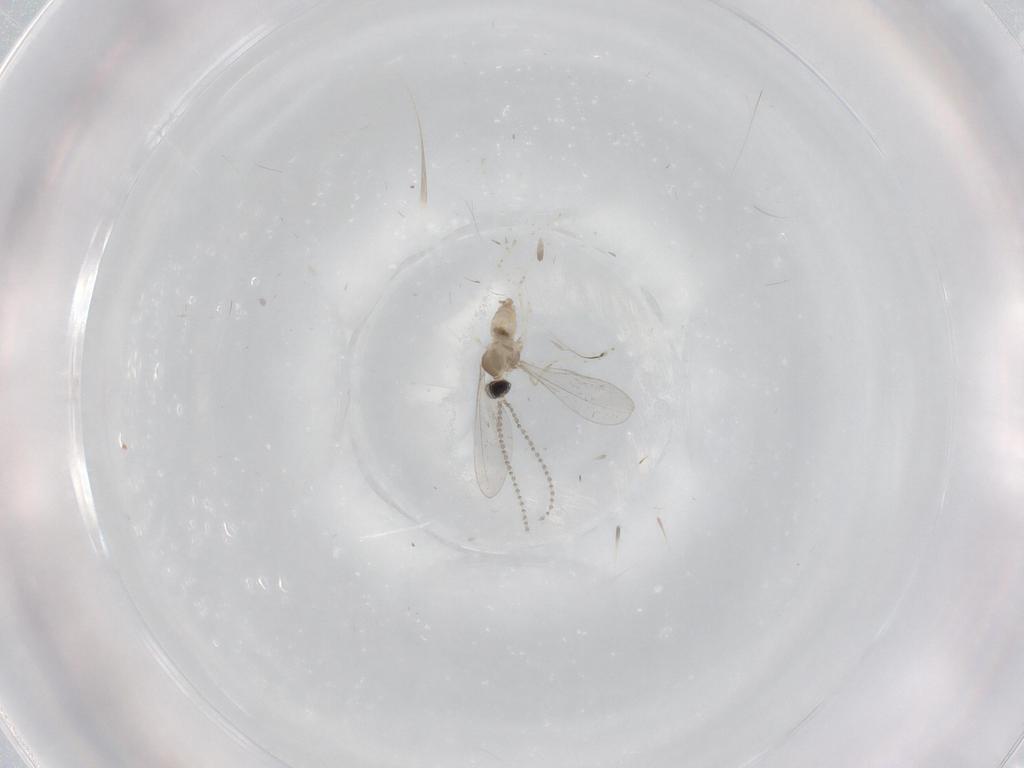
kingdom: Animalia
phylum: Arthropoda
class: Insecta
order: Diptera
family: Cecidomyiidae
